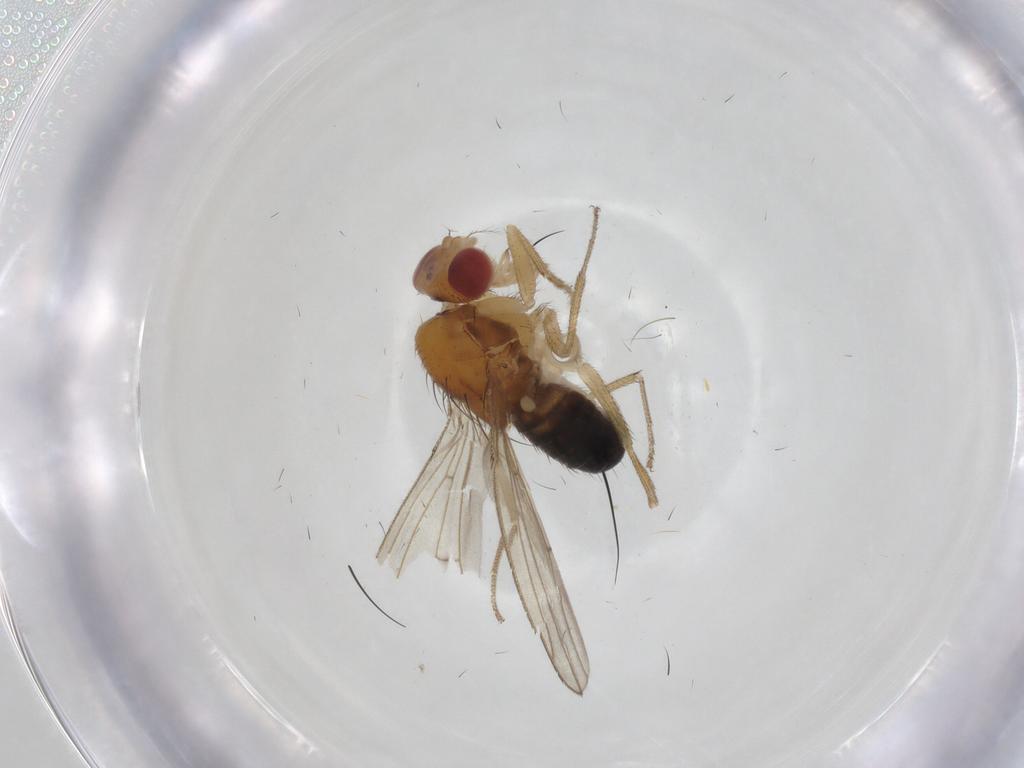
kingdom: Animalia
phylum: Arthropoda
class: Insecta
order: Diptera
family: Drosophilidae
